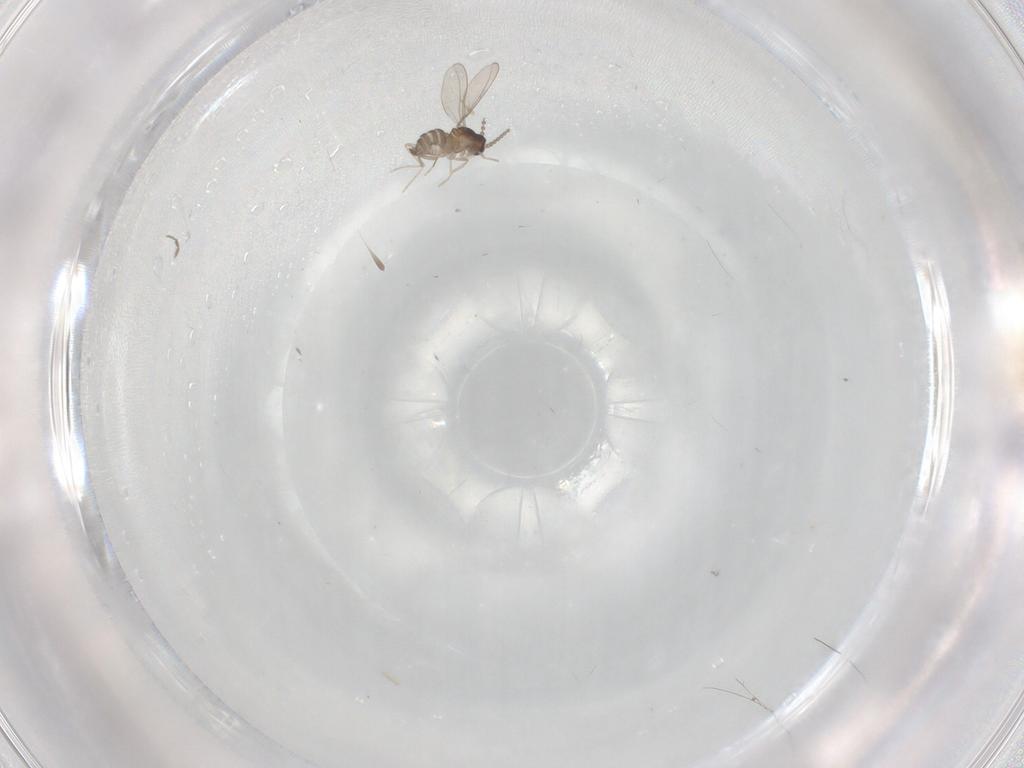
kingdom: Animalia
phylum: Arthropoda
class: Insecta
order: Diptera
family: Cecidomyiidae
